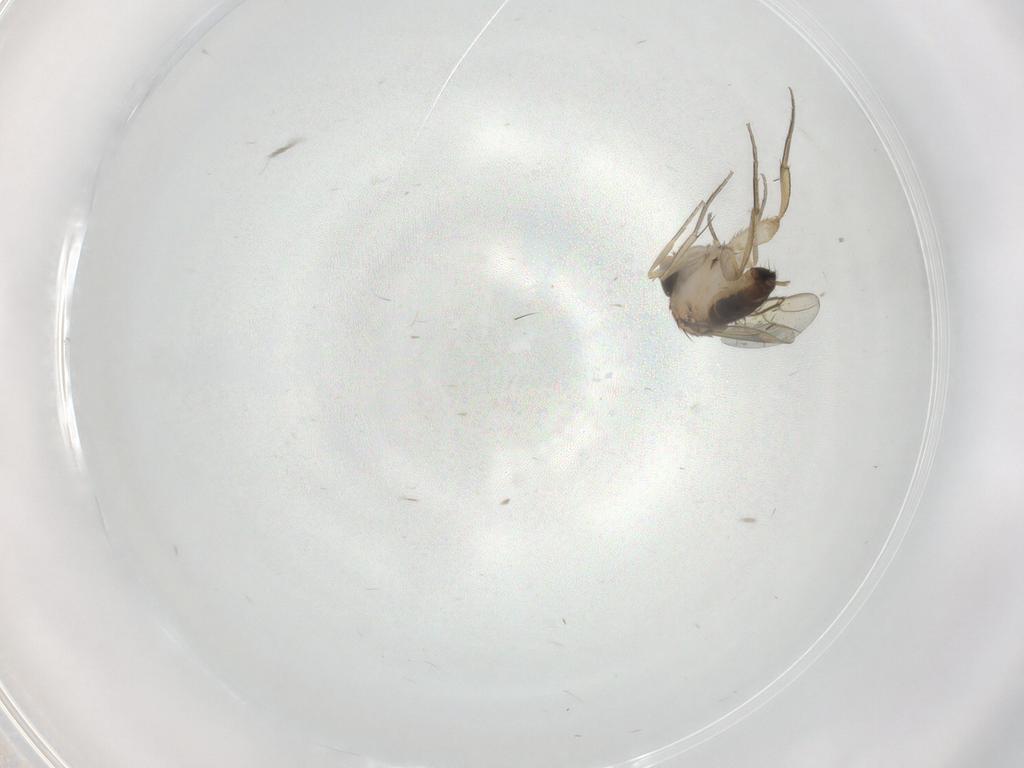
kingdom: Animalia
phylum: Arthropoda
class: Insecta
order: Diptera
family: Phoridae
